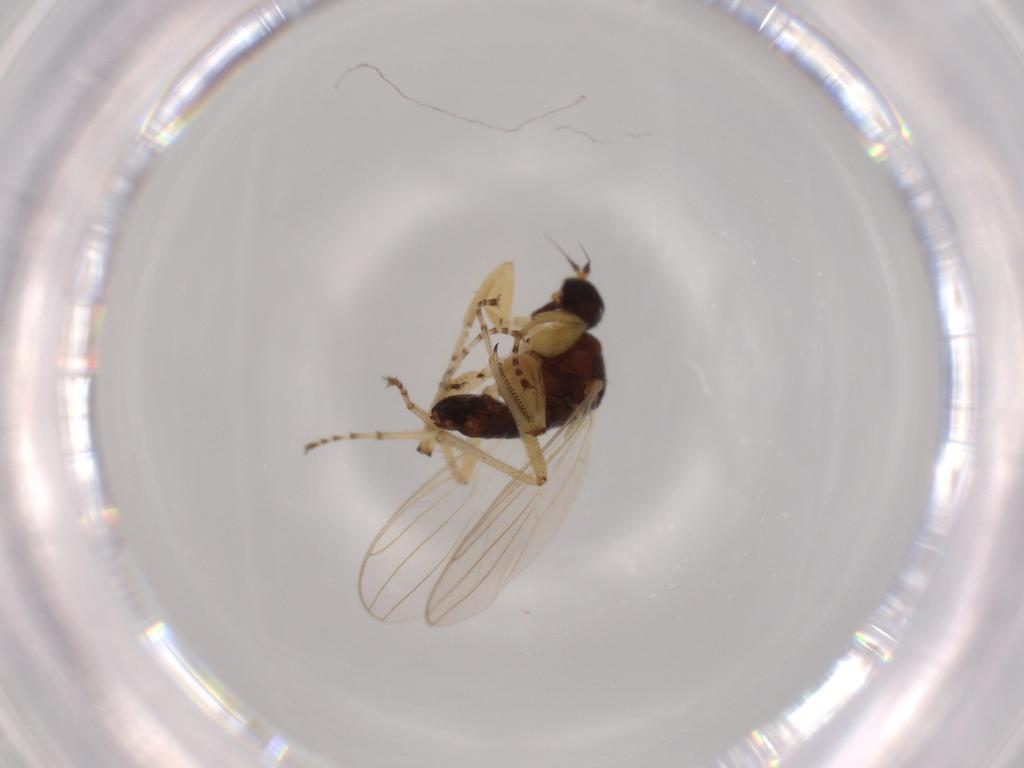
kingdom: Animalia
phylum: Arthropoda
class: Insecta
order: Diptera
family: Hybotidae
